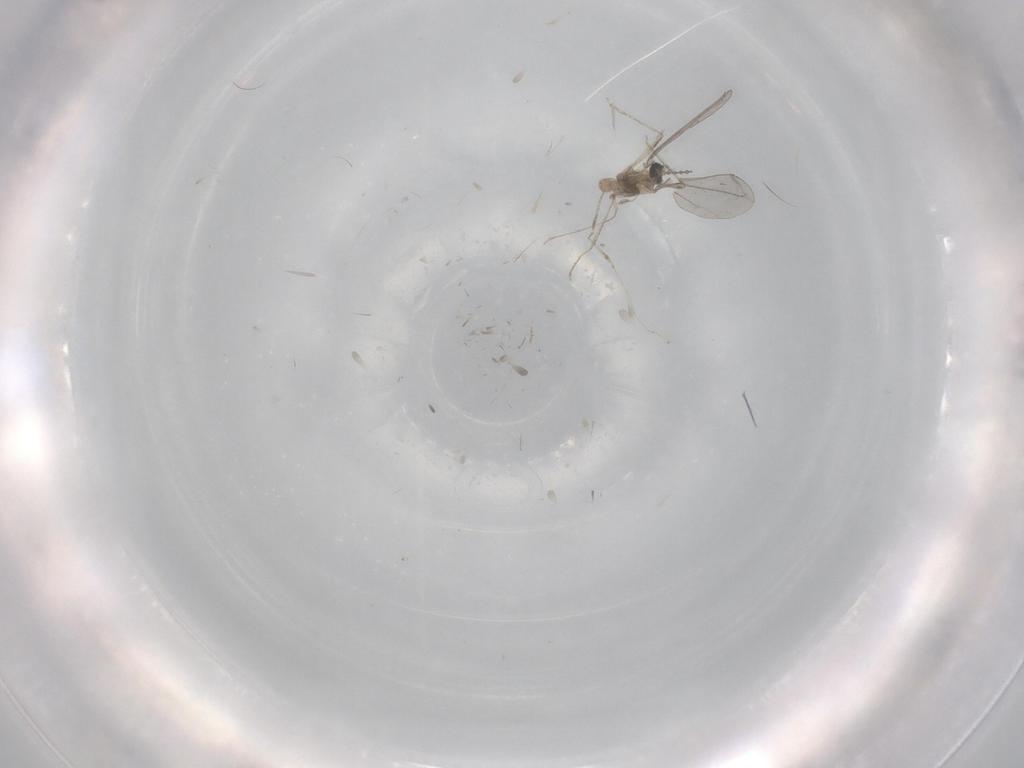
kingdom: Animalia
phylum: Arthropoda
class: Insecta
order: Diptera
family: Cecidomyiidae
